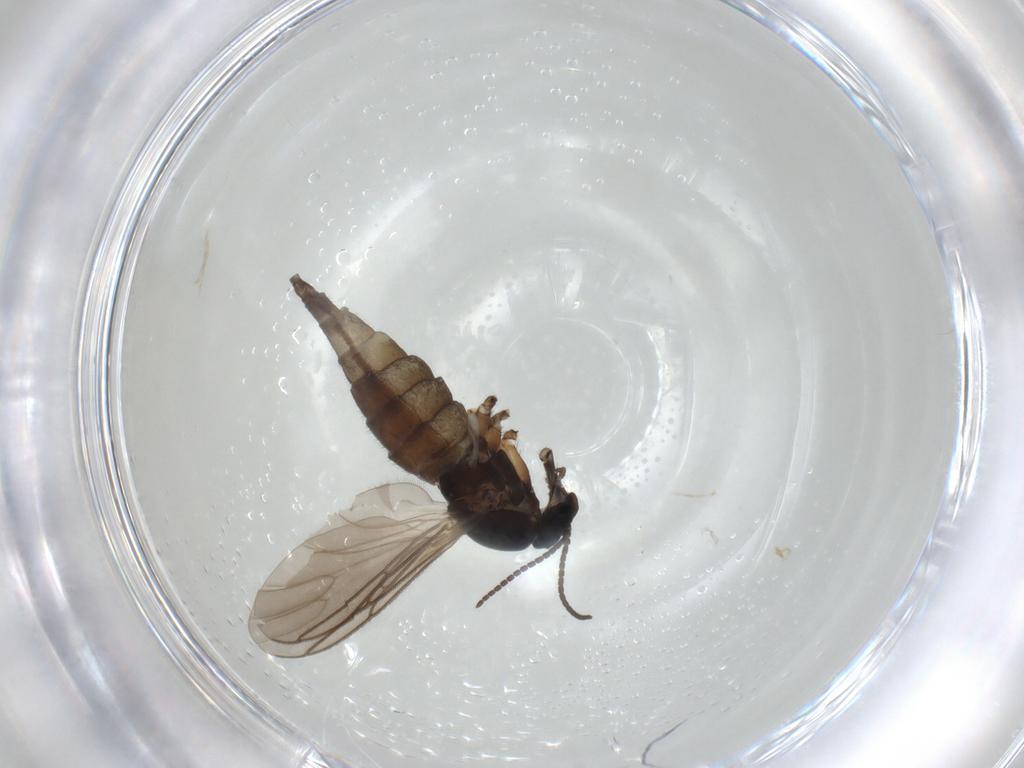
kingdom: Animalia
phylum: Arthropoda
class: Insecta
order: Diptera
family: Sciaridae
